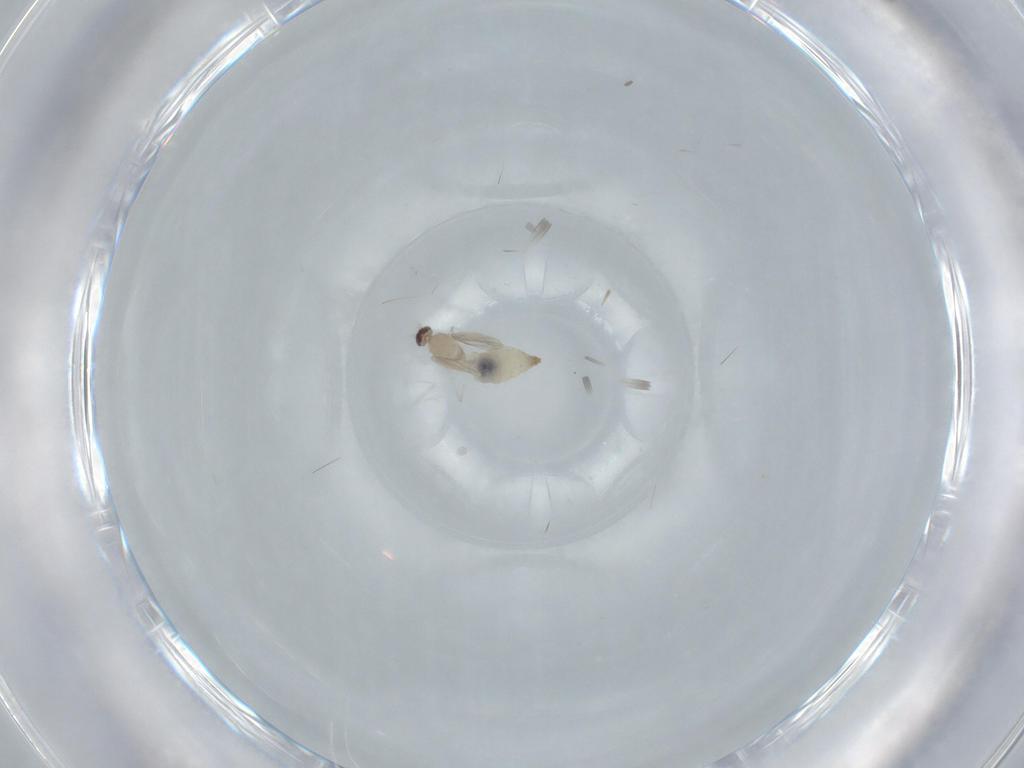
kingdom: Animalia
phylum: Arthropoda
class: Insecta
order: Diptera
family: Cecidomyiidae
